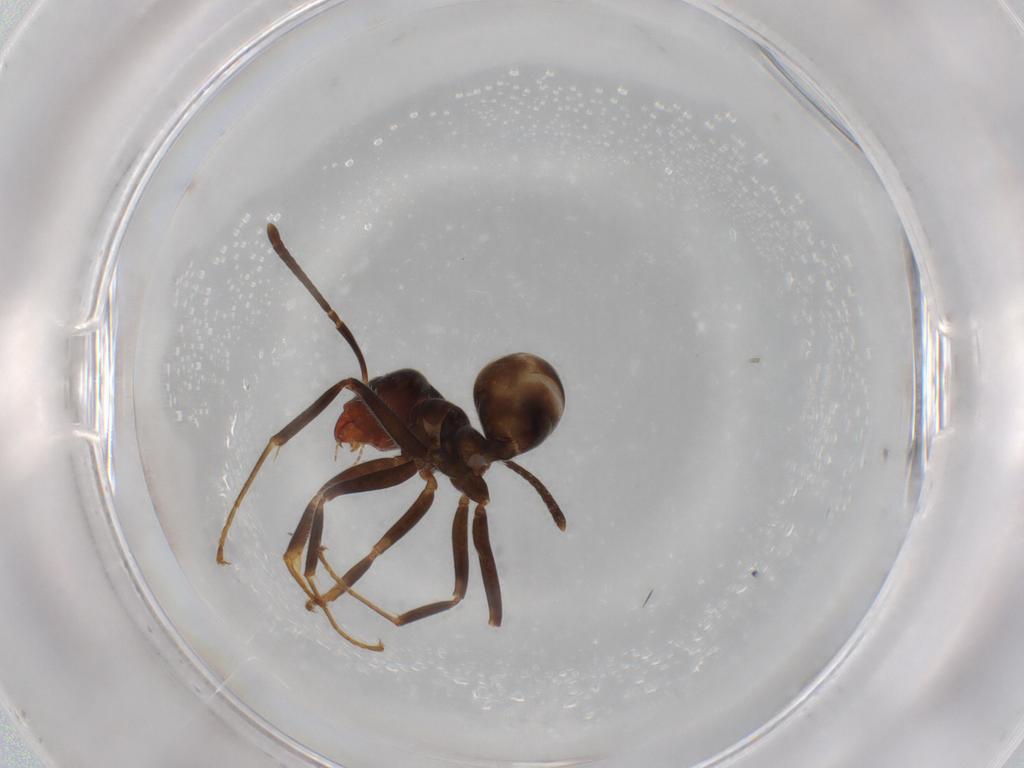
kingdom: Animalia
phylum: Arthropoda
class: Insecta
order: Hymenoptera
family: Formicidae
